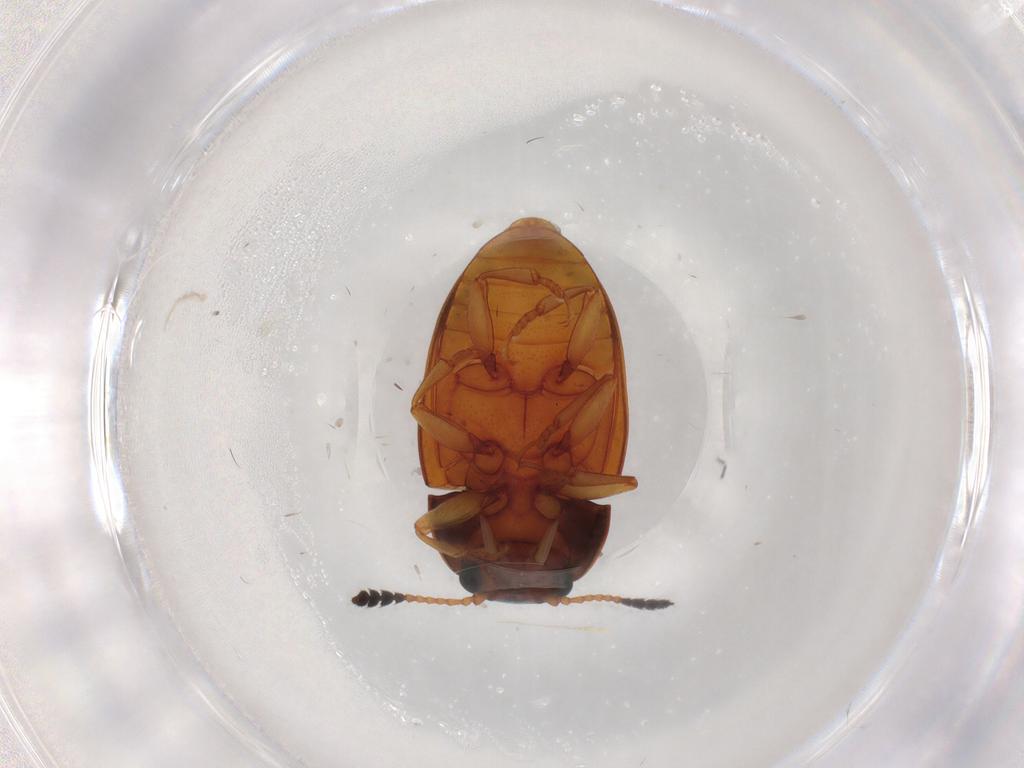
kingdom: Animalia
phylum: Arthropoda
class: Insecta
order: Coleoptera
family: Erotylidae
